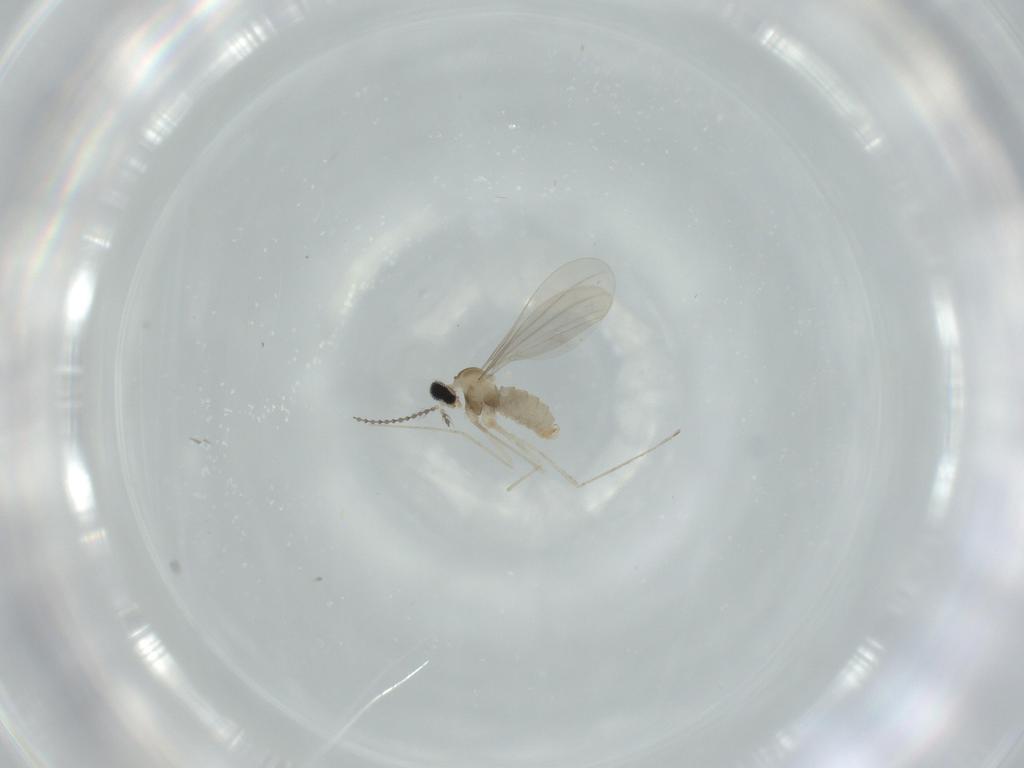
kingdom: Animalia
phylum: Arthropoda
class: Insecta
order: Diptera
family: Cecidomyiidae
